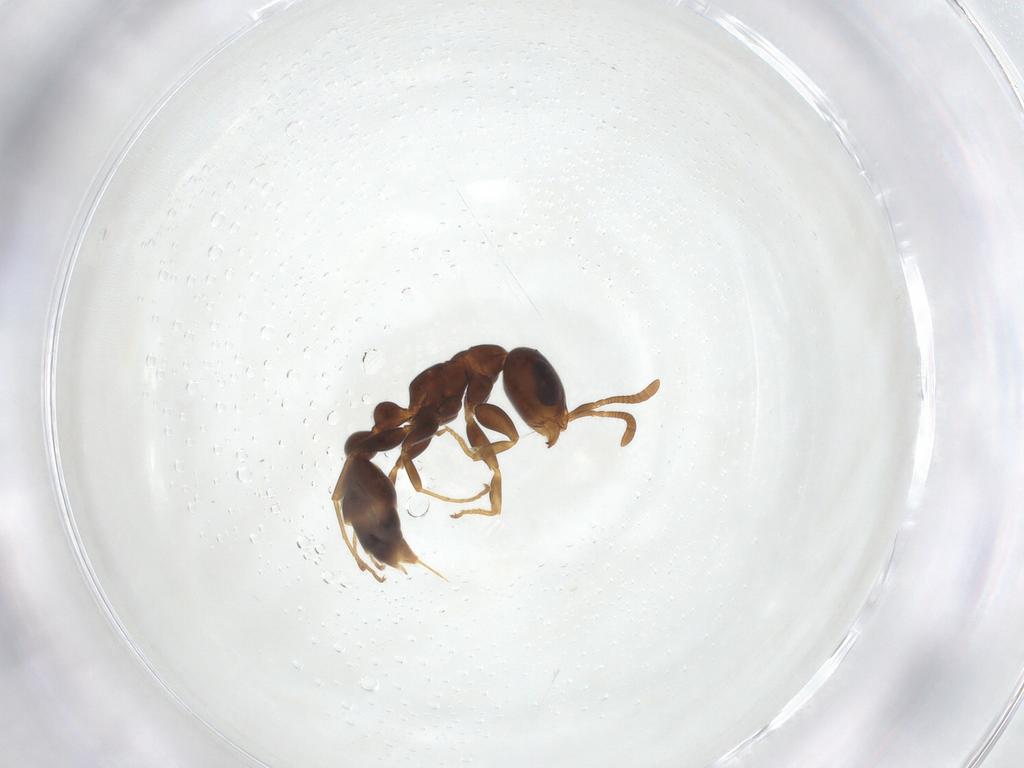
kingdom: Animalia
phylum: Arthropoda
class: Insecta
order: Hymenoptera
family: Formicidae
